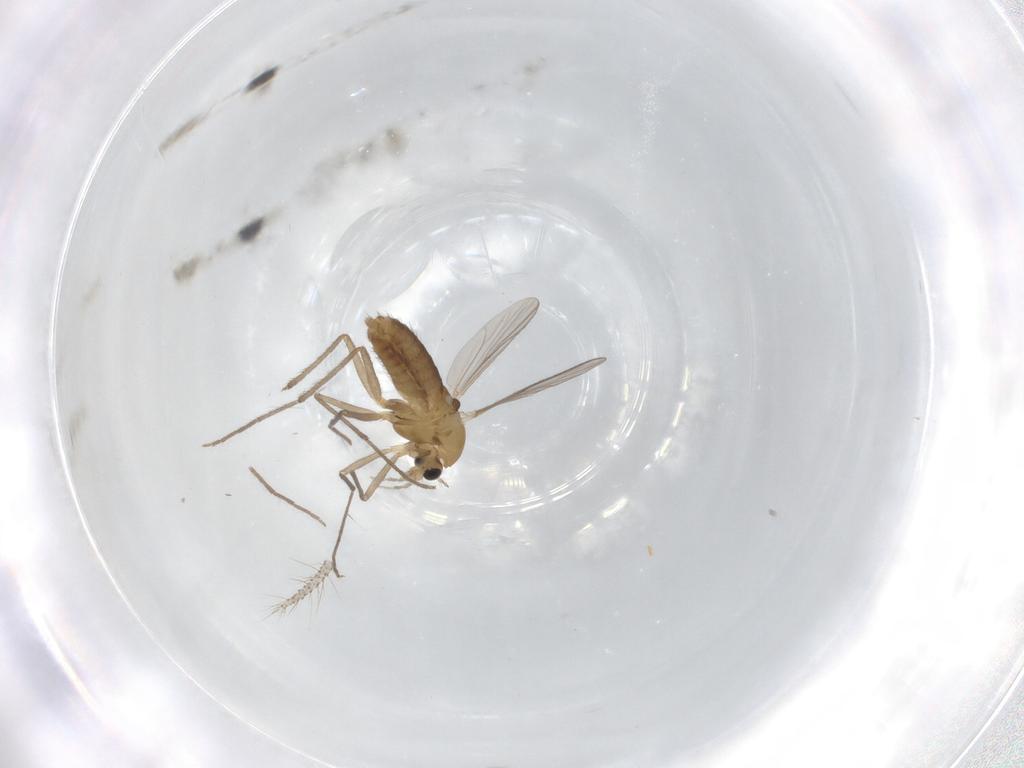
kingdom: Animalia
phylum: Arthropoda
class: Insecta
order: Diptera
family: Chironomidae
